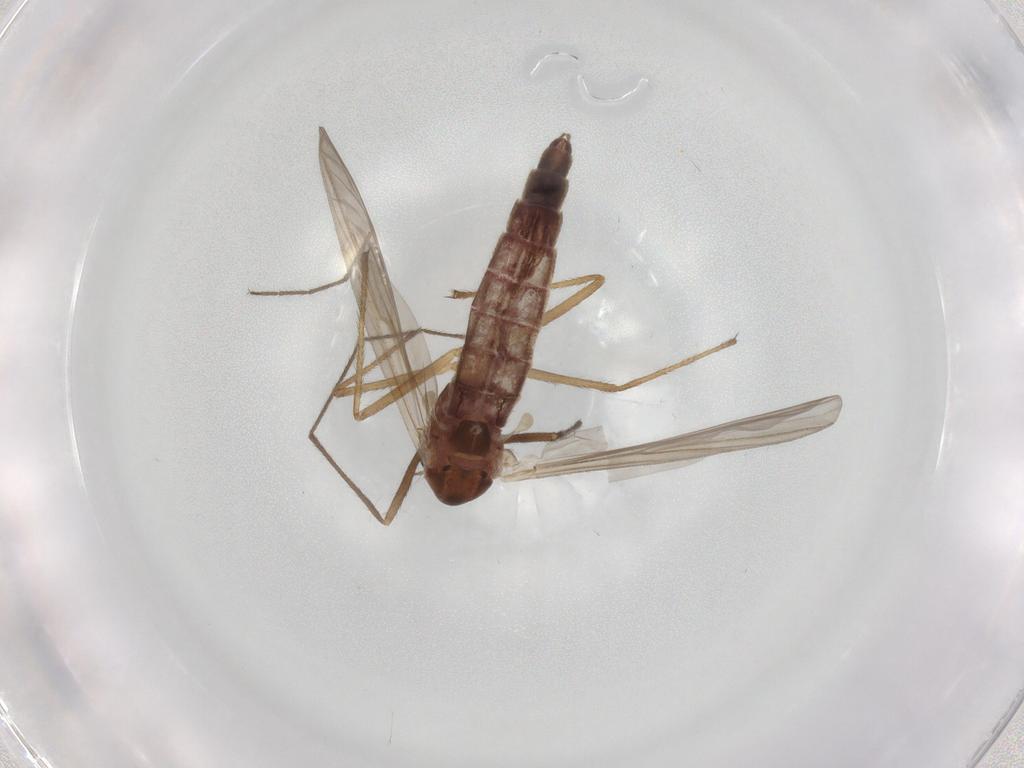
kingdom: Animalia
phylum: Arthropoda
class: Insecta
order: Diptera
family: Chironomidae
